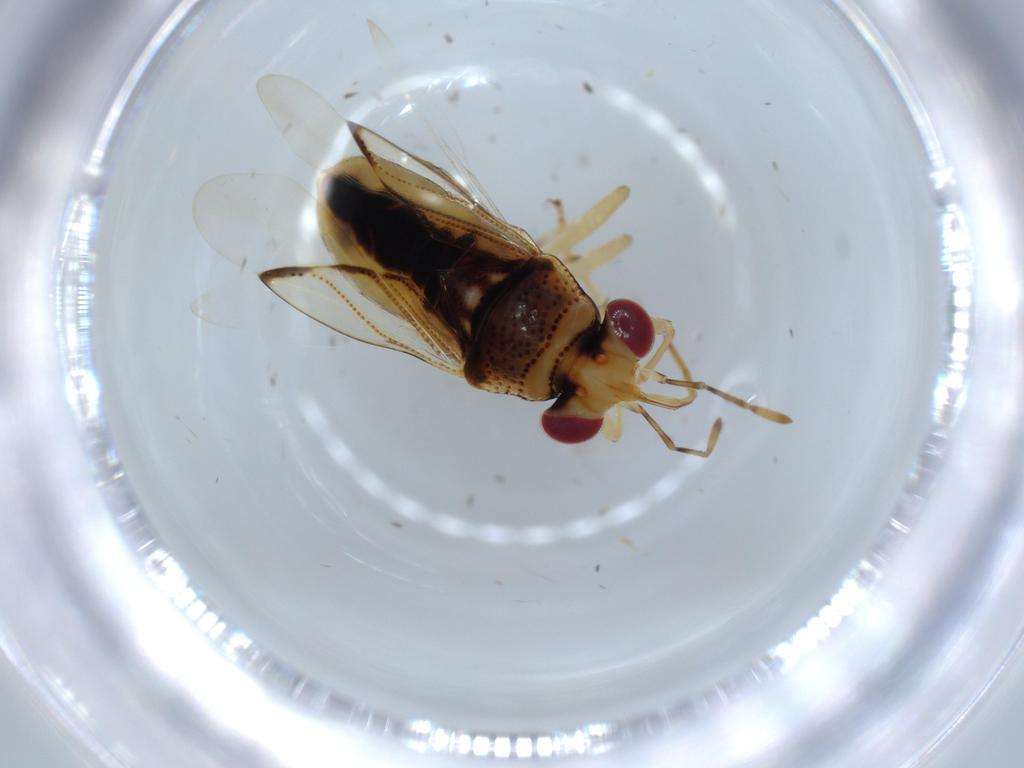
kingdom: Animalia
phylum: Arthropoda
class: Insecta
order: Hemiptera
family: Geocoridae
